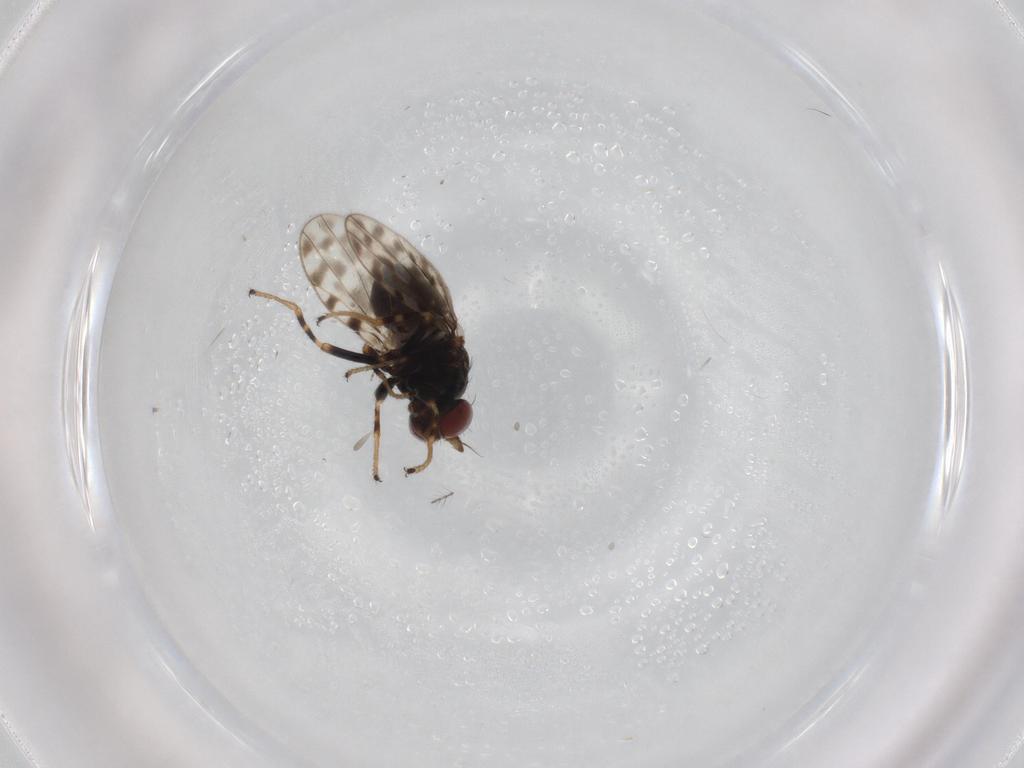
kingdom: Animalia
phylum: Arthropoda
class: Insecta
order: Diptera
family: Ephydridae
